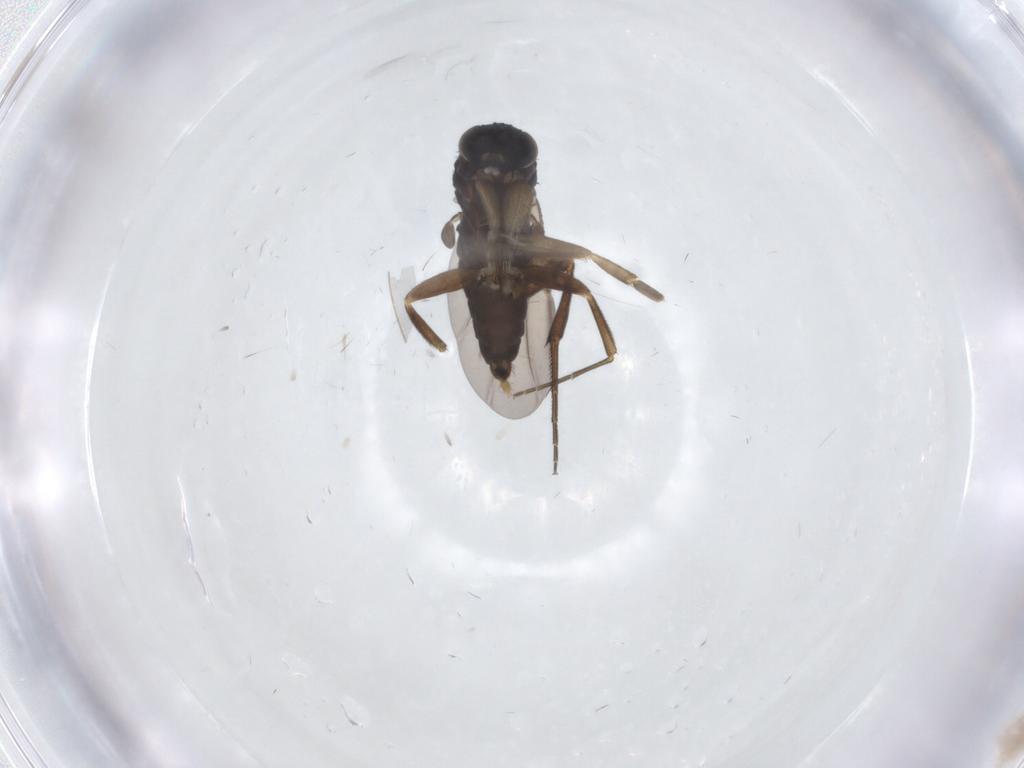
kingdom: Animalia
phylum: Arthropoda
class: Insecta
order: Diptera
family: Phoridae
